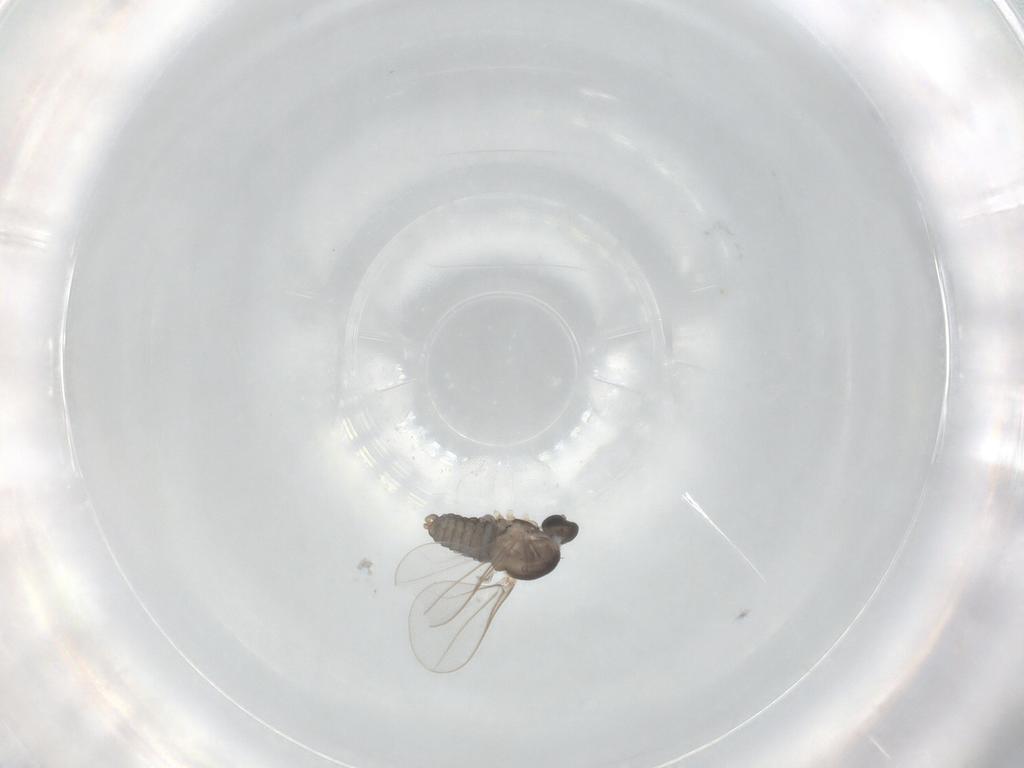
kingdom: Animalia
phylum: Arthropoda
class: Insecta
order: Diptera
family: Cecidomyiidae
